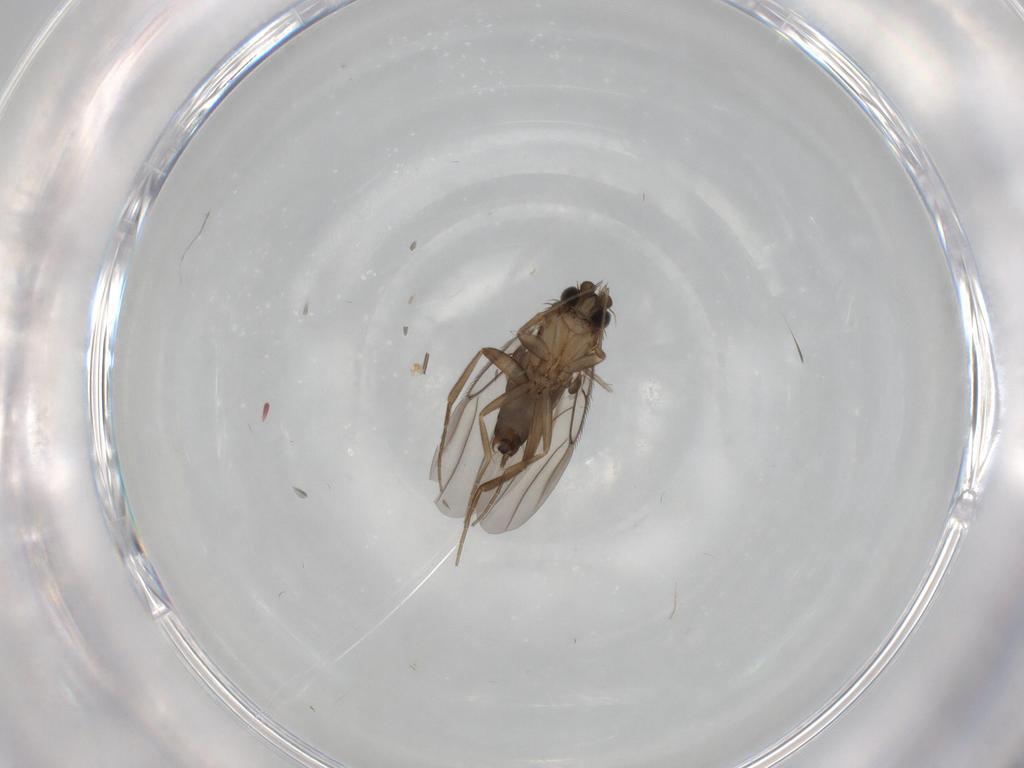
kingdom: Animalia
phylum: Arthropoda
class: Insecta
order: Diptera
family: Phoridae
